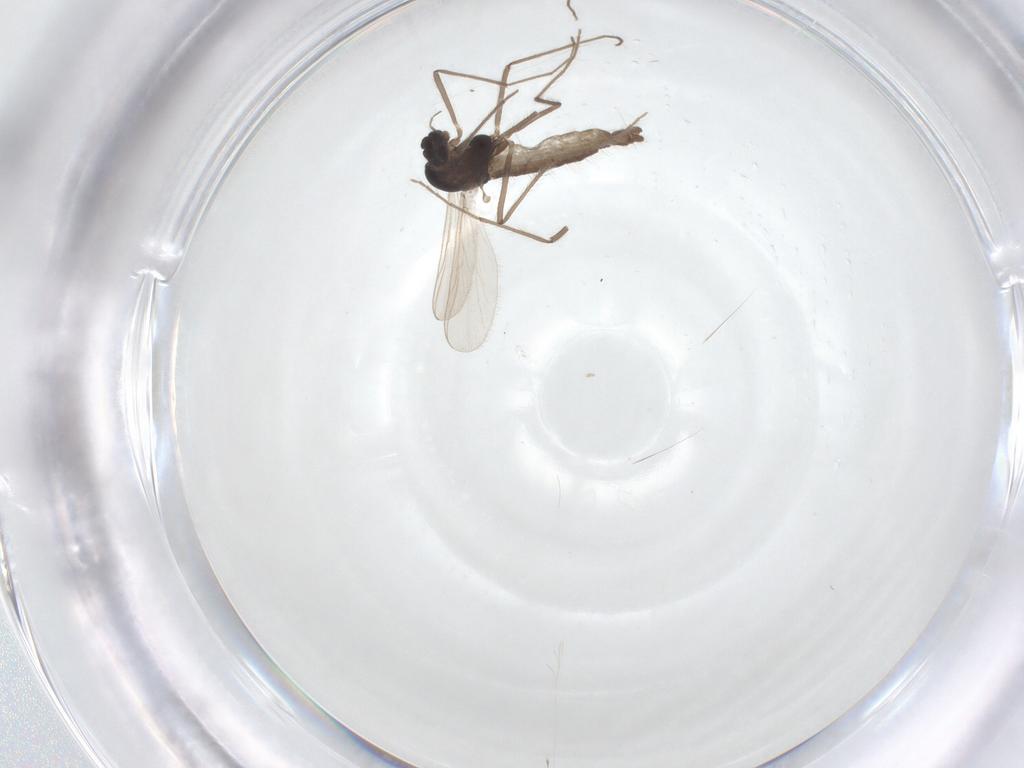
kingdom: Animalia
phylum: Arthropoda
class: Insecta
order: Diptera
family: Chironomidae
